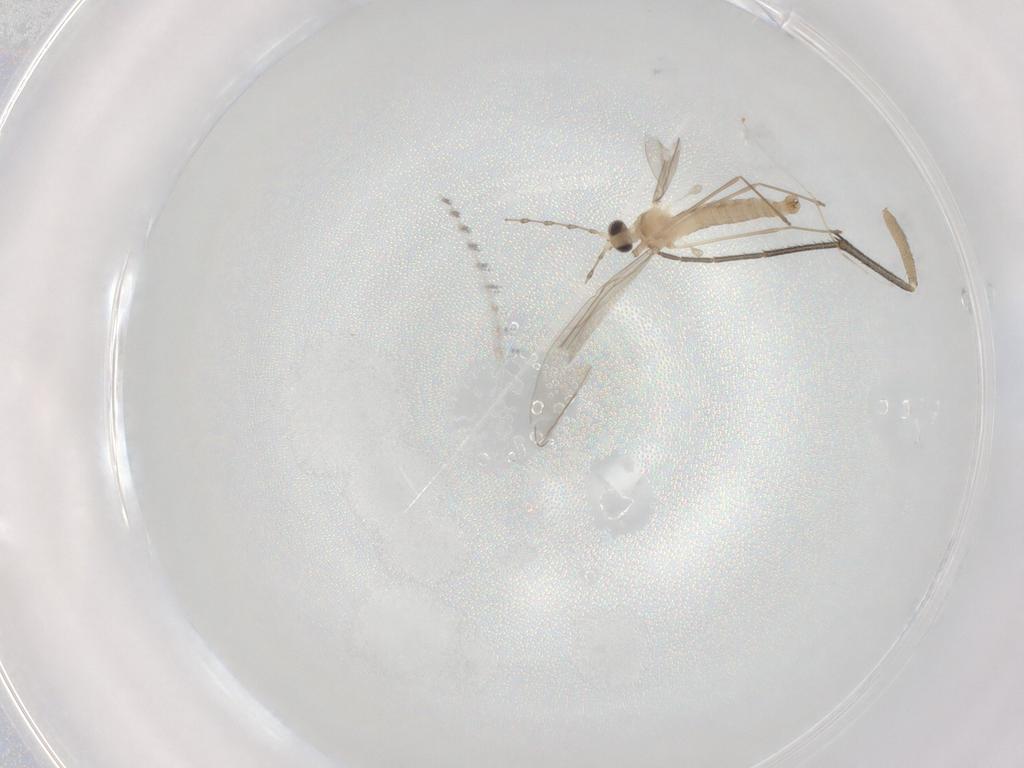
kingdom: Animalia
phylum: Arthropoda
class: Insecta
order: Diptera
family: Cecidomyiidae
